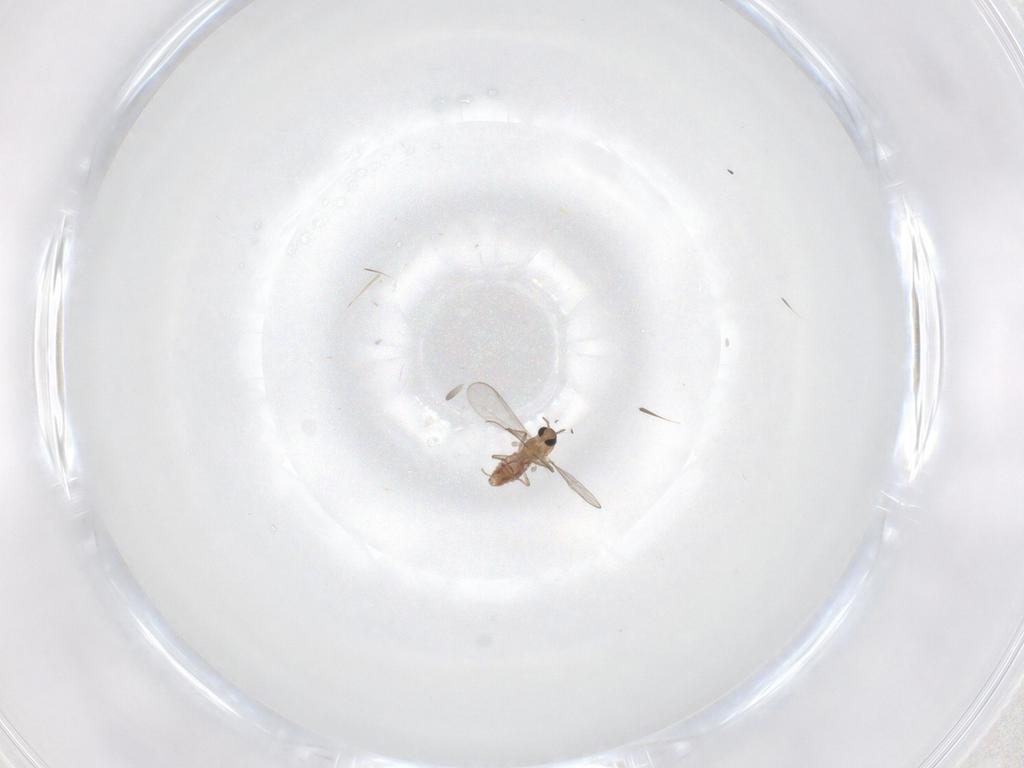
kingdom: Animalia
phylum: Arthropoda
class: Insecta
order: Diptera
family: Chironomidae
